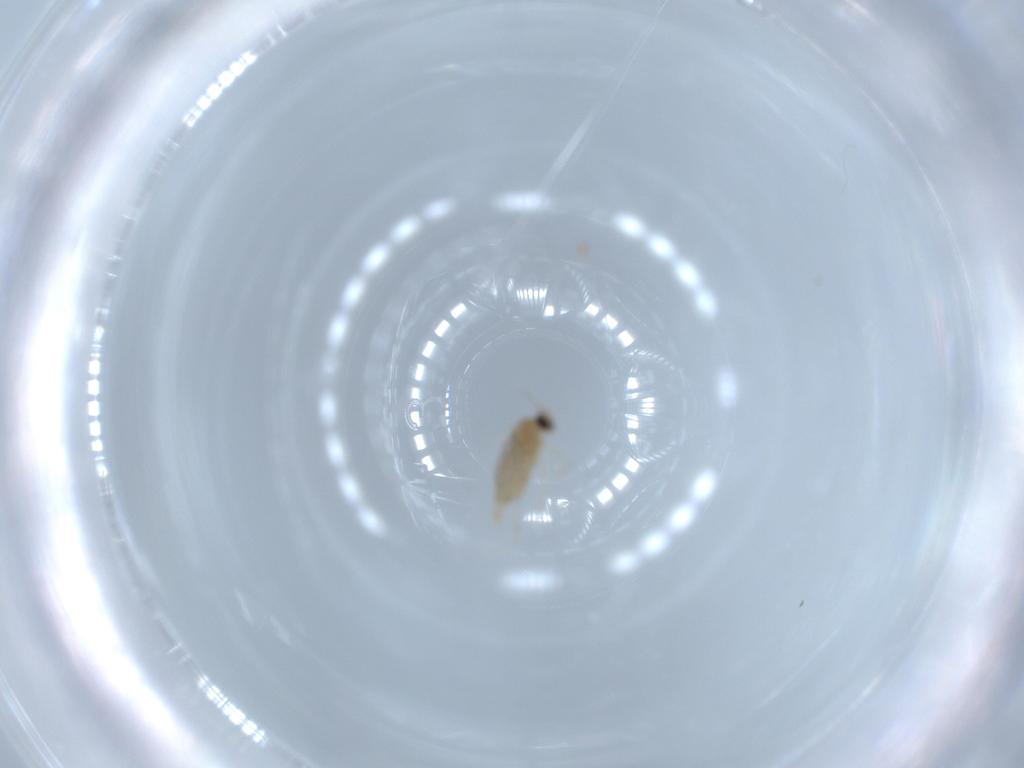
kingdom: Animalia
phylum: Arthropoda
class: Insecta
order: Diptera
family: Cecidomyiidae
